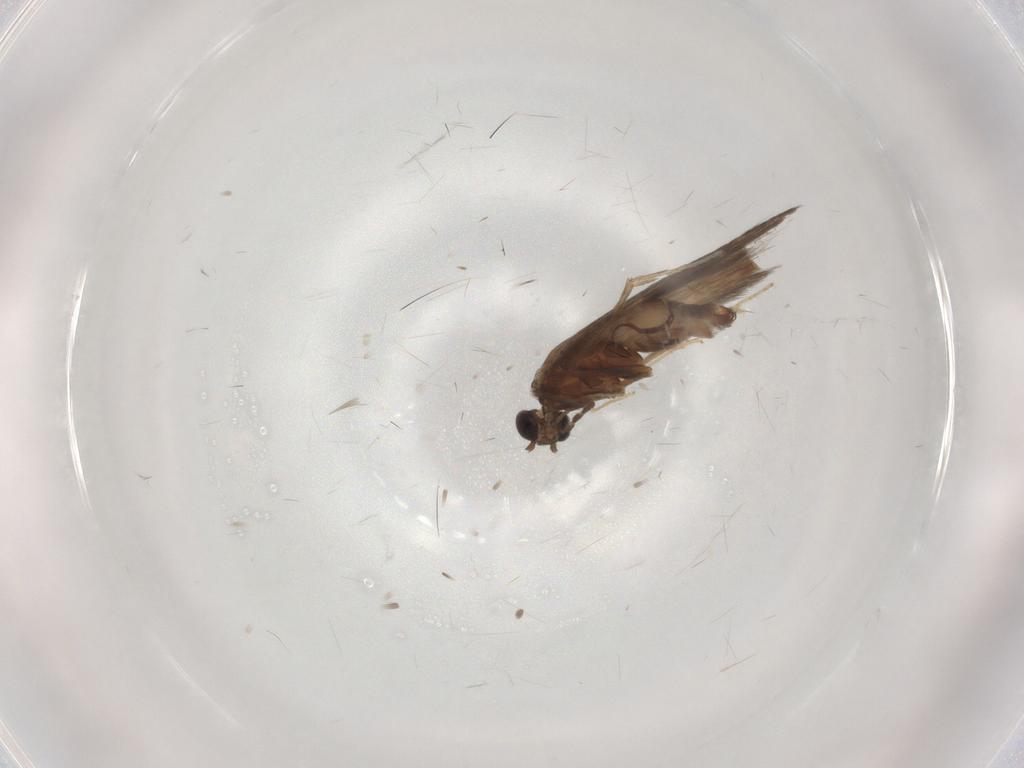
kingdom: Animalia
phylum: Arthropoda
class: Insecta
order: Trichoptera
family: Hydroptilidae
